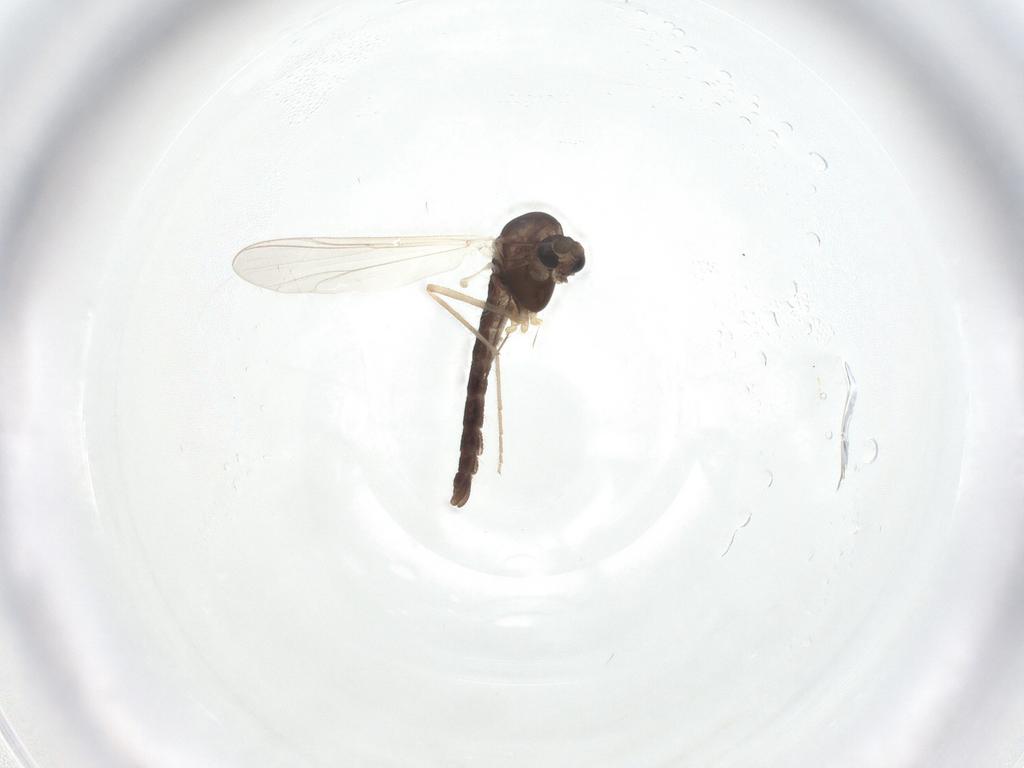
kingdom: Animalia
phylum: Arthropoda
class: Insecta
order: Diptera
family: Chironomidae
